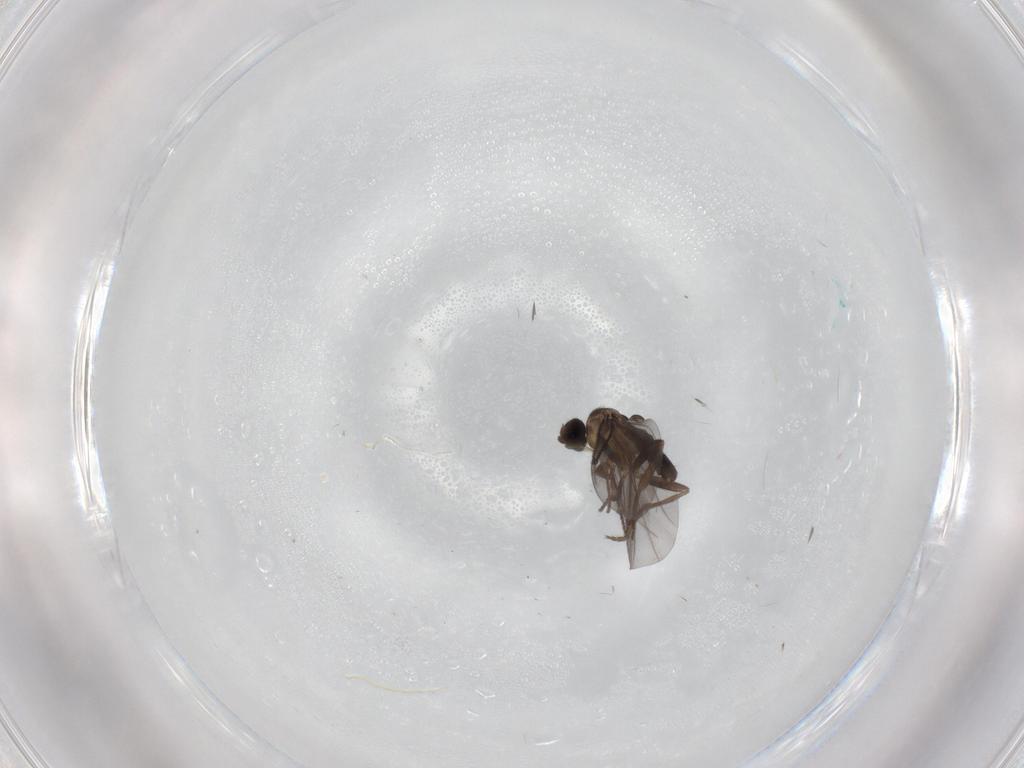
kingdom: Animalia
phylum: Arthropoda
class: Insecta
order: Diptera
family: Phoridae
